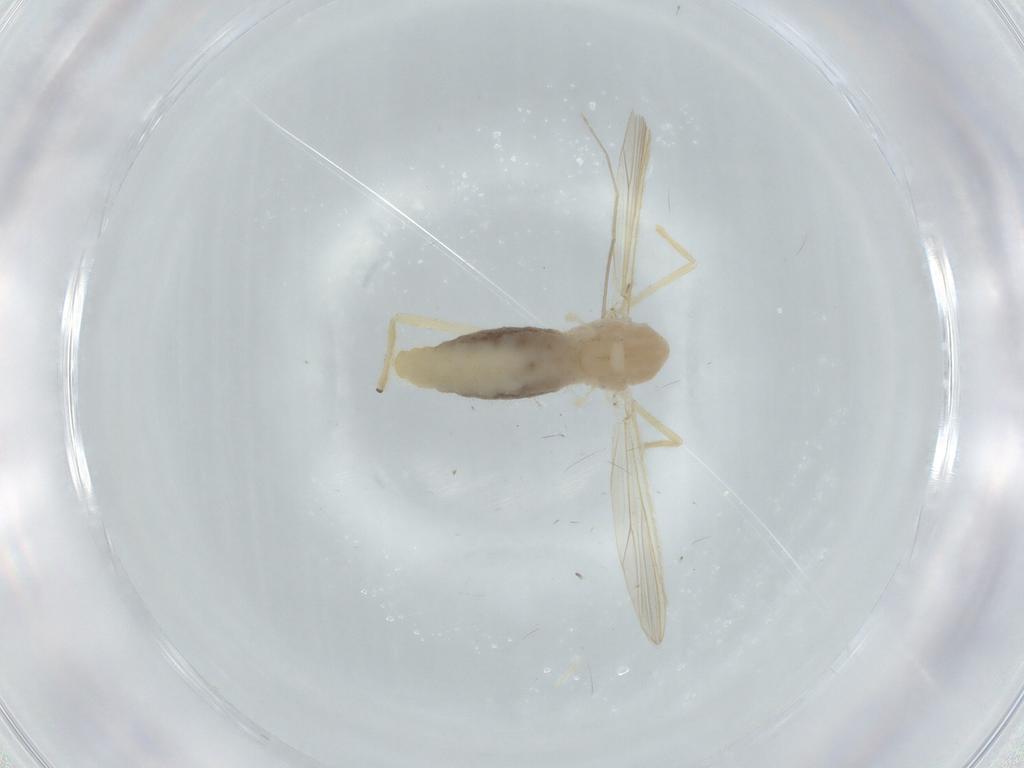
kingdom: Animalia
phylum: Arthropoda
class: Insecta
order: Diptera
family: Chironomidae
